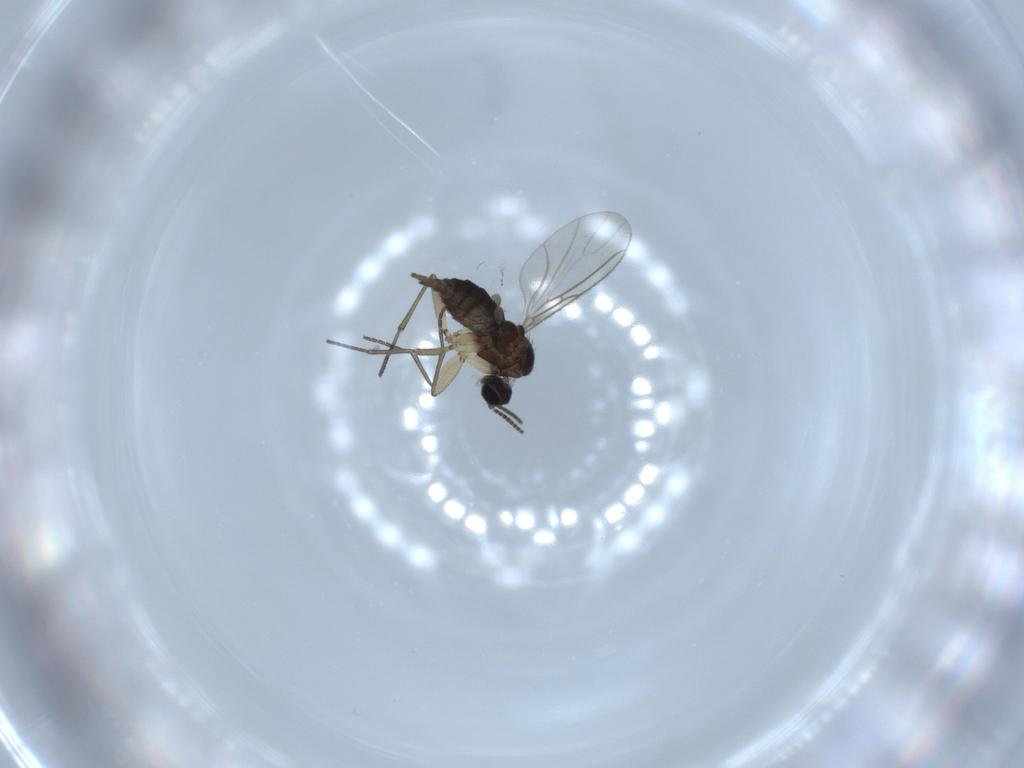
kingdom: Animalia
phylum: Arthropoda
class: Insecta
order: Diptera
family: Sciaridae
